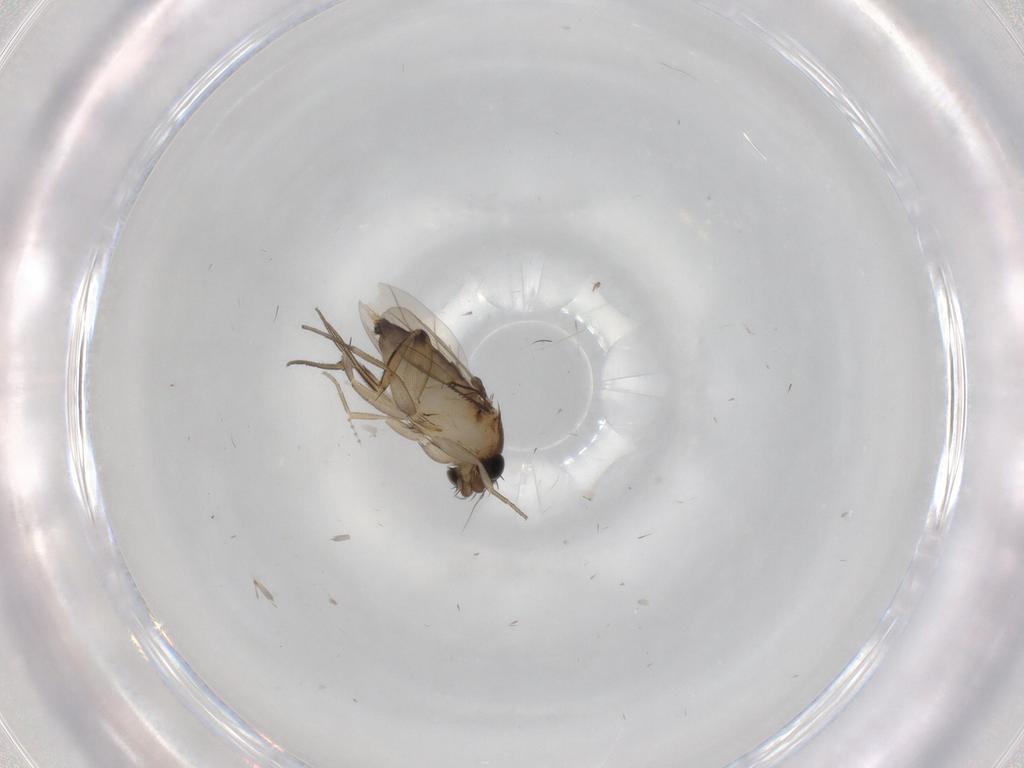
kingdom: Animalia
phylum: Arthropoda
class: Insecta
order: Diptera
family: Phoridae
